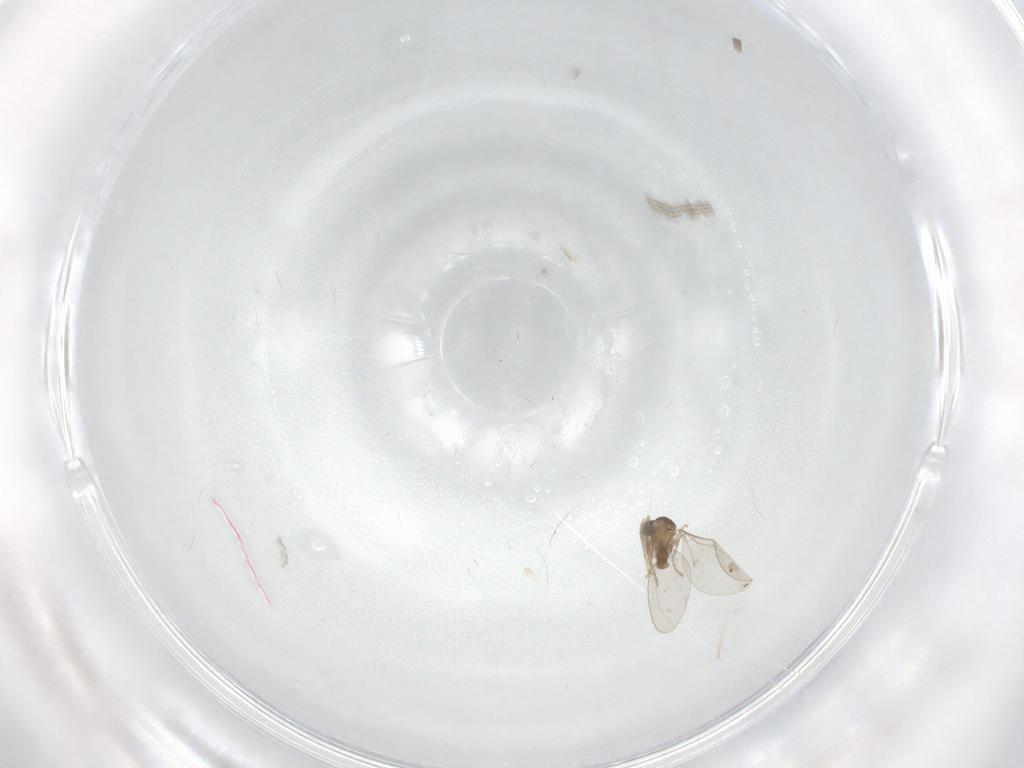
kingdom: Animalia
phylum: Arthropoda
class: Insecta
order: Diptera
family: Cecidomyiidae
